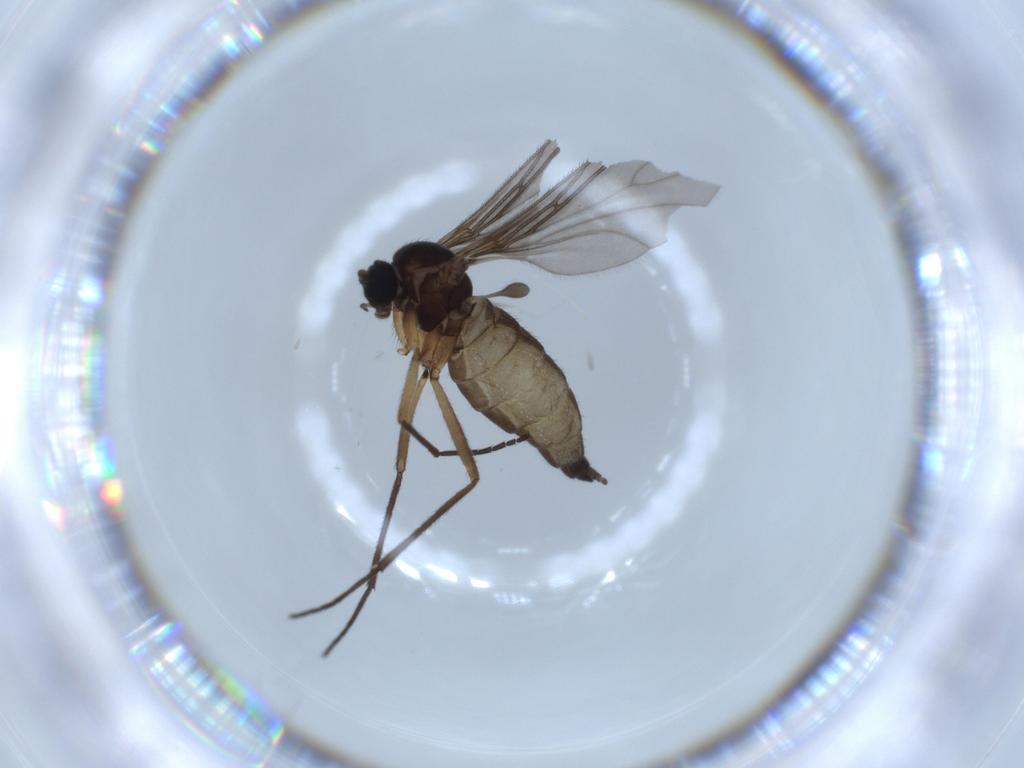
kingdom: Animalia
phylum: Arthropoda
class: Insecta
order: Diptera
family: Sciaridae
